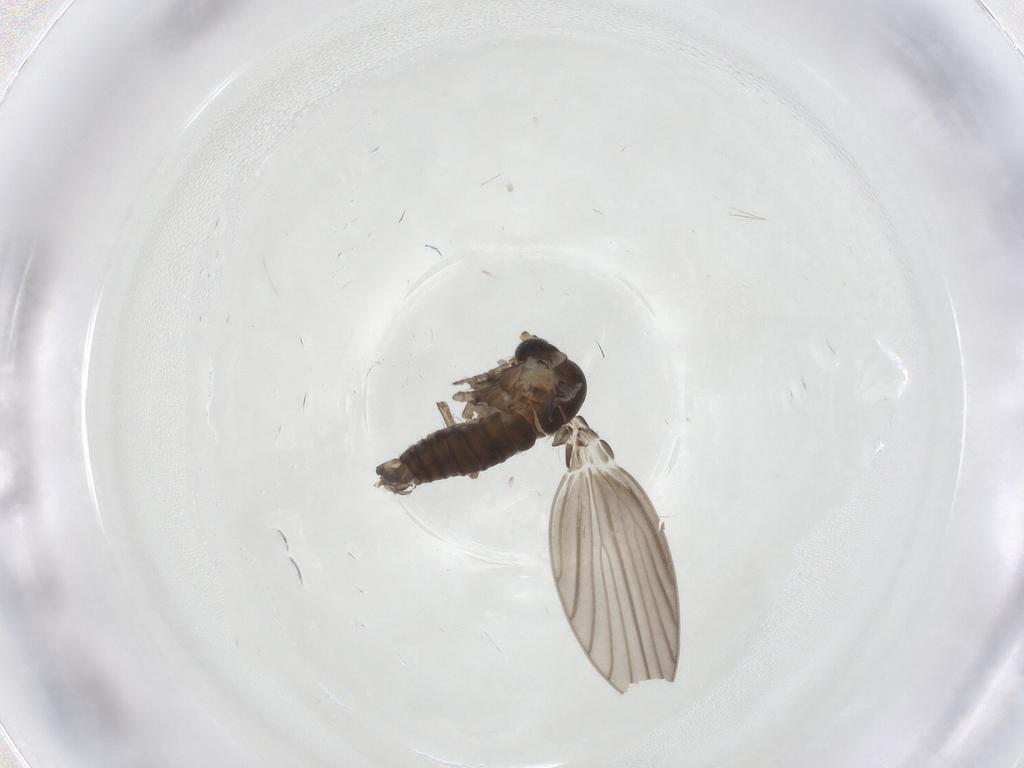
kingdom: Animalia
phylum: Arthropoda
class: Insecta
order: Diptera
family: Psychodidae
